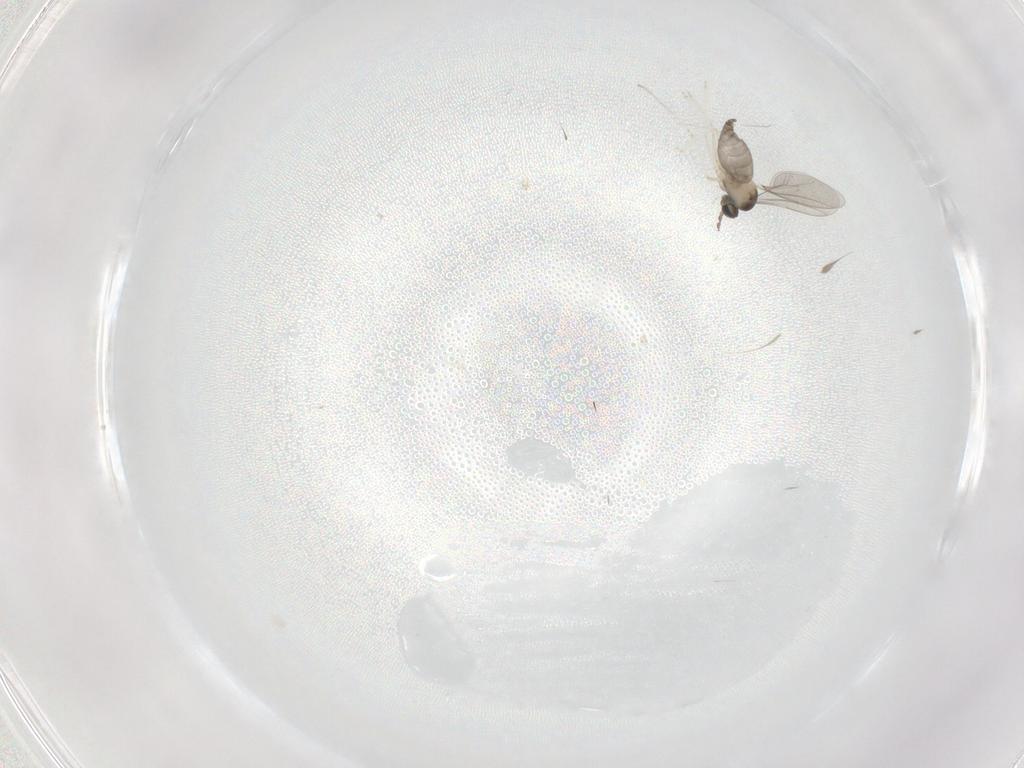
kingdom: Animalia
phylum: Arthropoda
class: Insecta
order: Diptera
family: Cecidomyiidae
